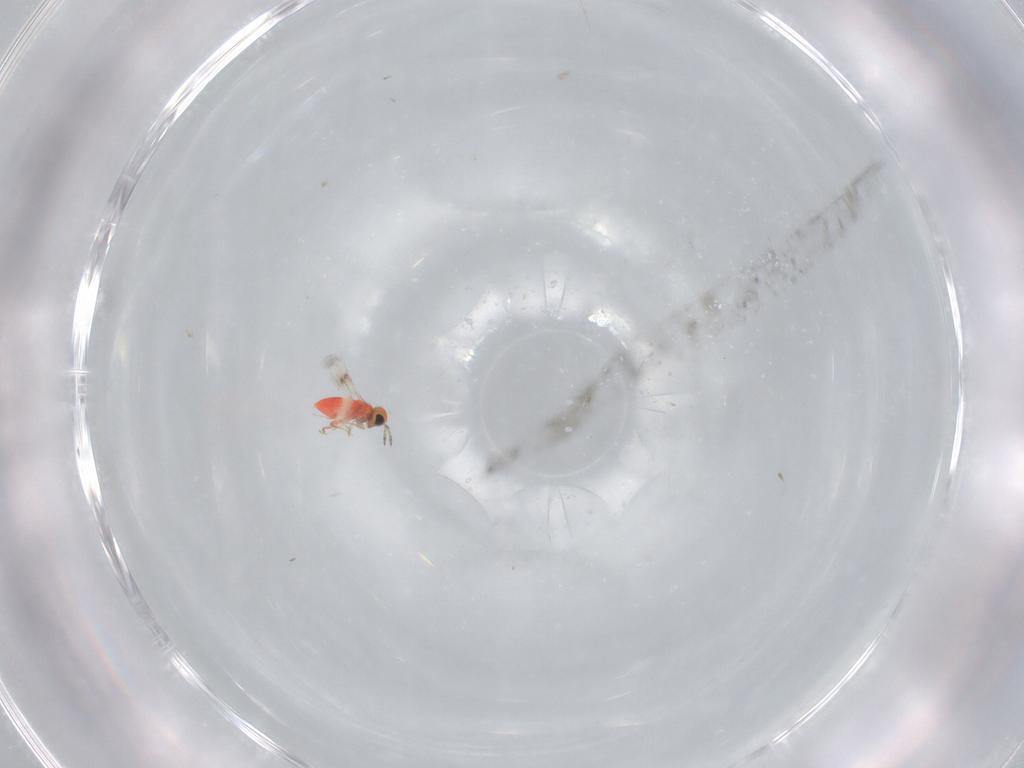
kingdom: Animalia
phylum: Arthropoda
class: Insecta
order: Hymenoptera
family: Trichogrammatidae
